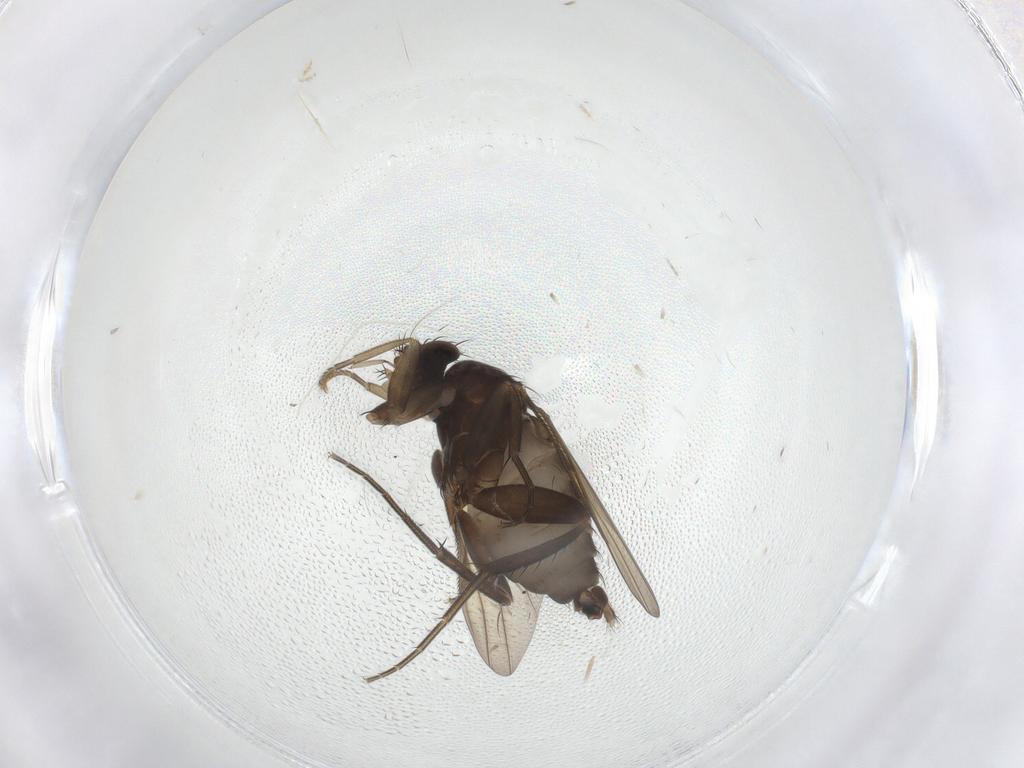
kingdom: Animalia
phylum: Arthropoda
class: Insecta
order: Diptera
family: Phoridae
